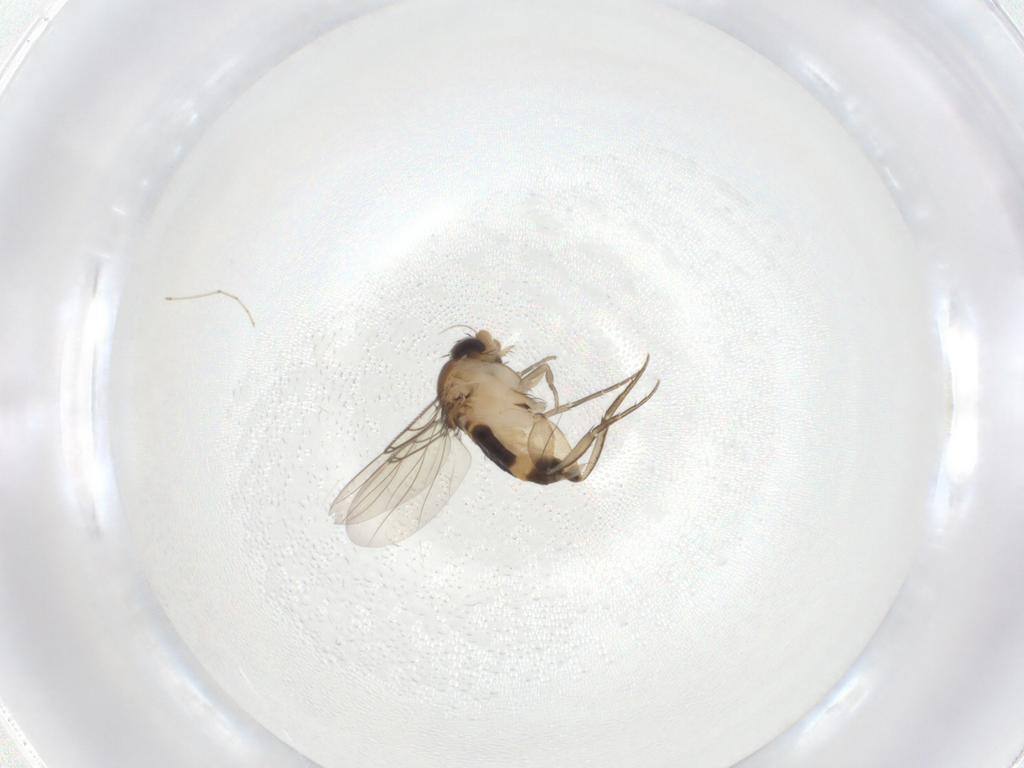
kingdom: Animalia
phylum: Arthropoda
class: Insecta
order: Diptera
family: Phoridae
